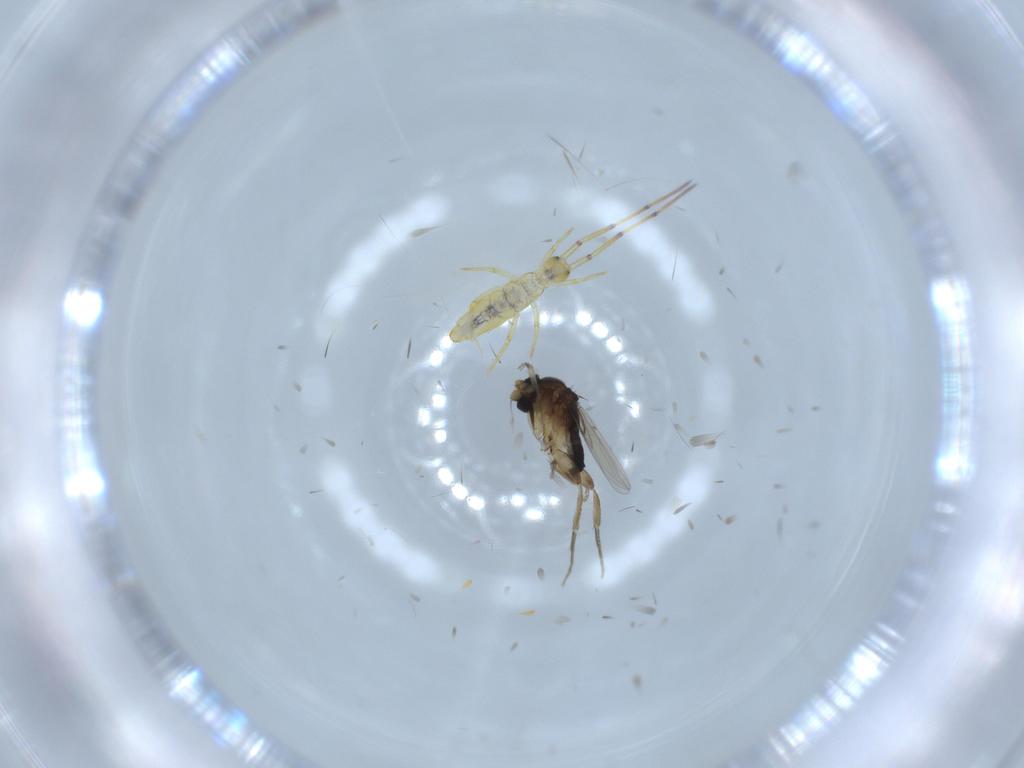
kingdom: Animalia
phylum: Arthropoda
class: Insecta
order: Diptera
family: Phoridae
